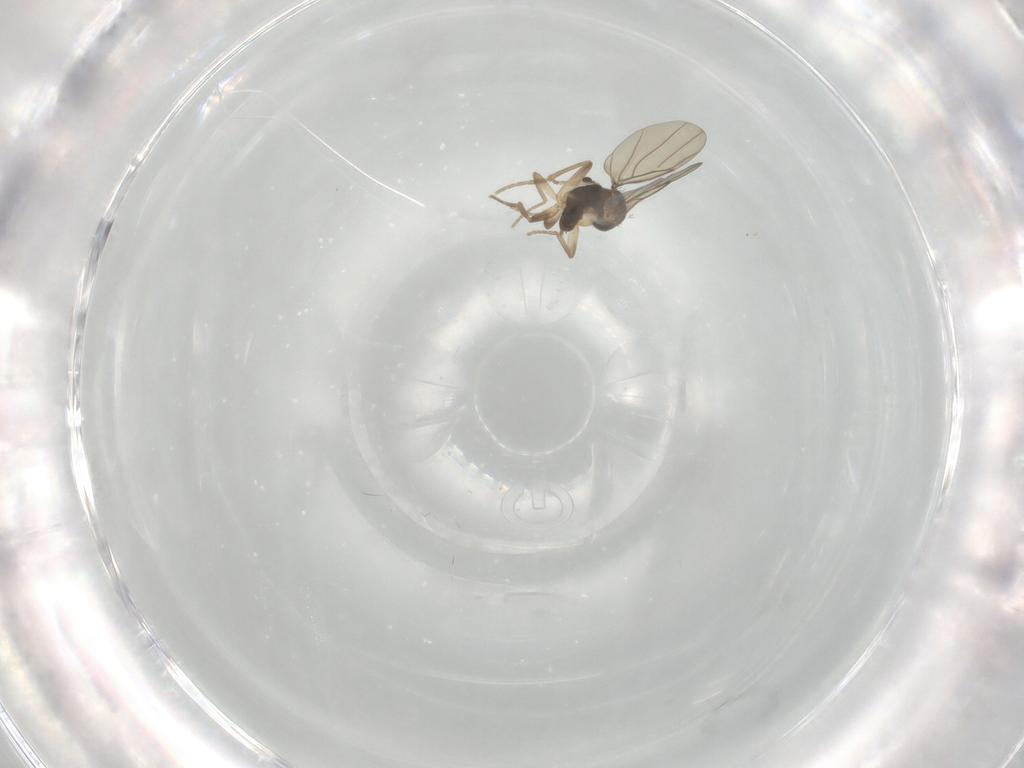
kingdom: Animalia
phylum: Arthropoda
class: Insecta
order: Diptera
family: Phoridae
